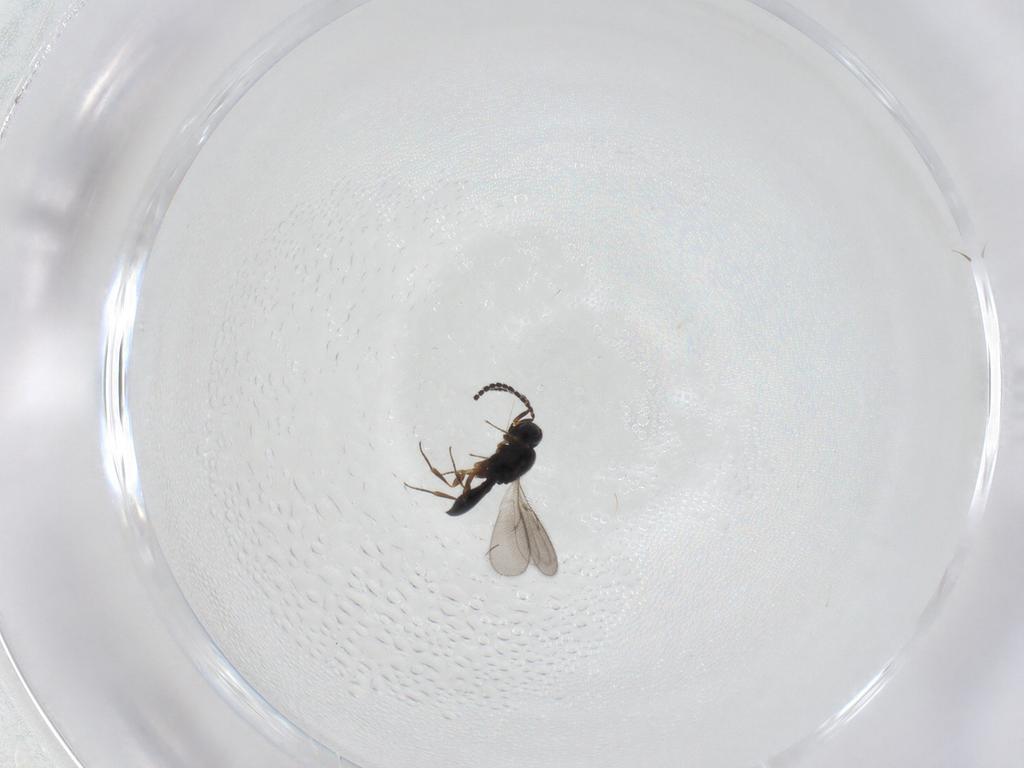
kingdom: Animalia
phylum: Arthropoda
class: Insecta
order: Hymenoptera
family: Scelionidae
